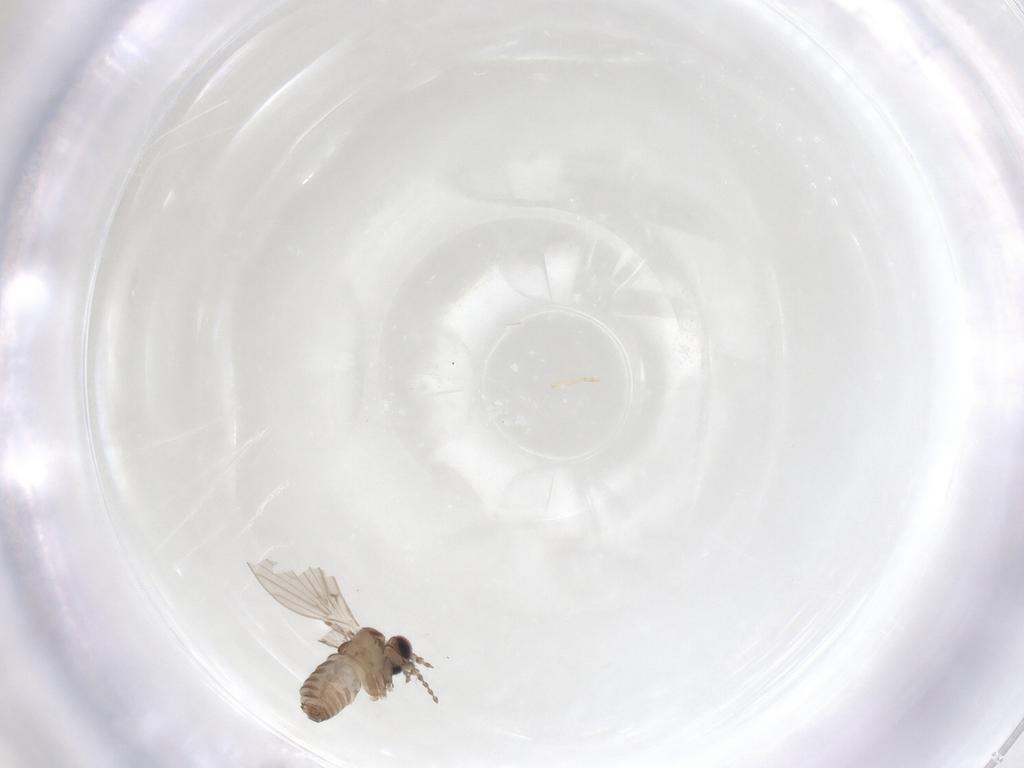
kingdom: Animalia
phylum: Arthropoda
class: Insecta
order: Diptera
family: Psychodidae
